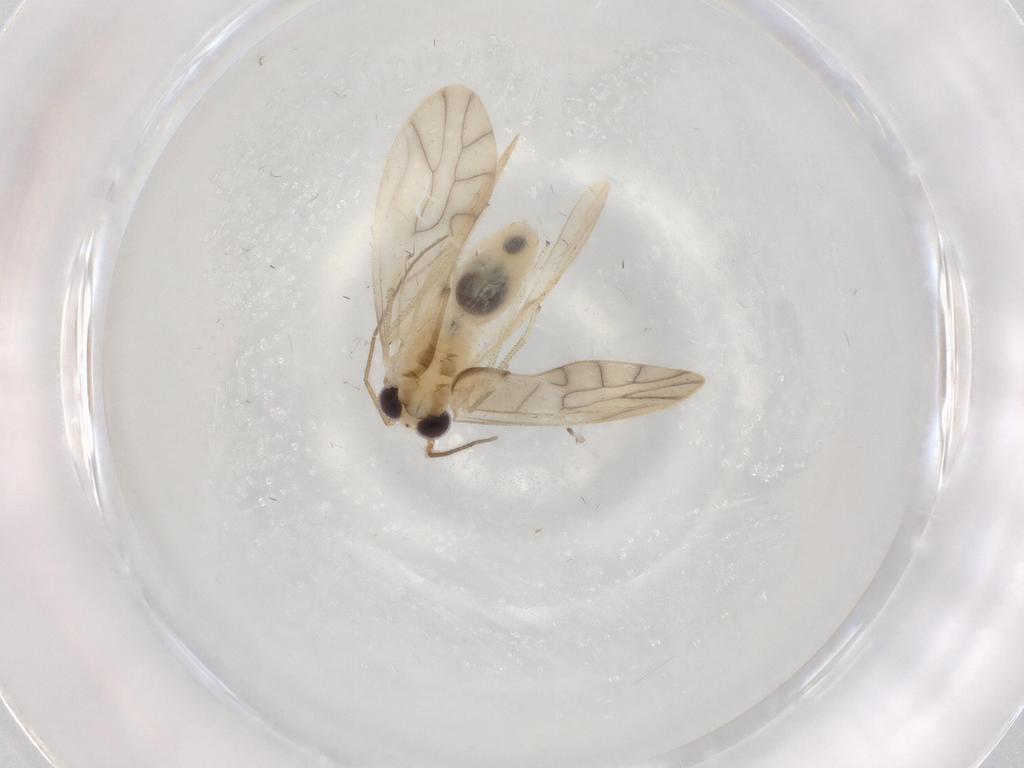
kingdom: Animalia
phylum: Arthropoda
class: Insecta
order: Psocodea
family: Caeciliusidae
